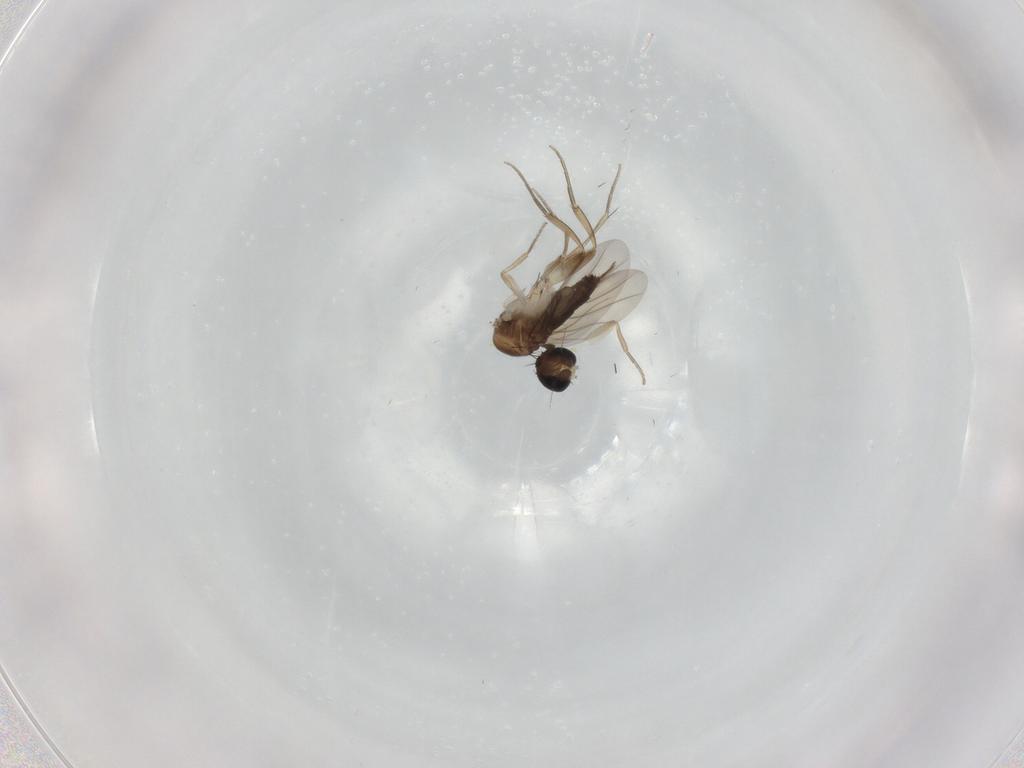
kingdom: Animalia
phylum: Arthropoda
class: Insecta
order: Diptera
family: Phoridae
